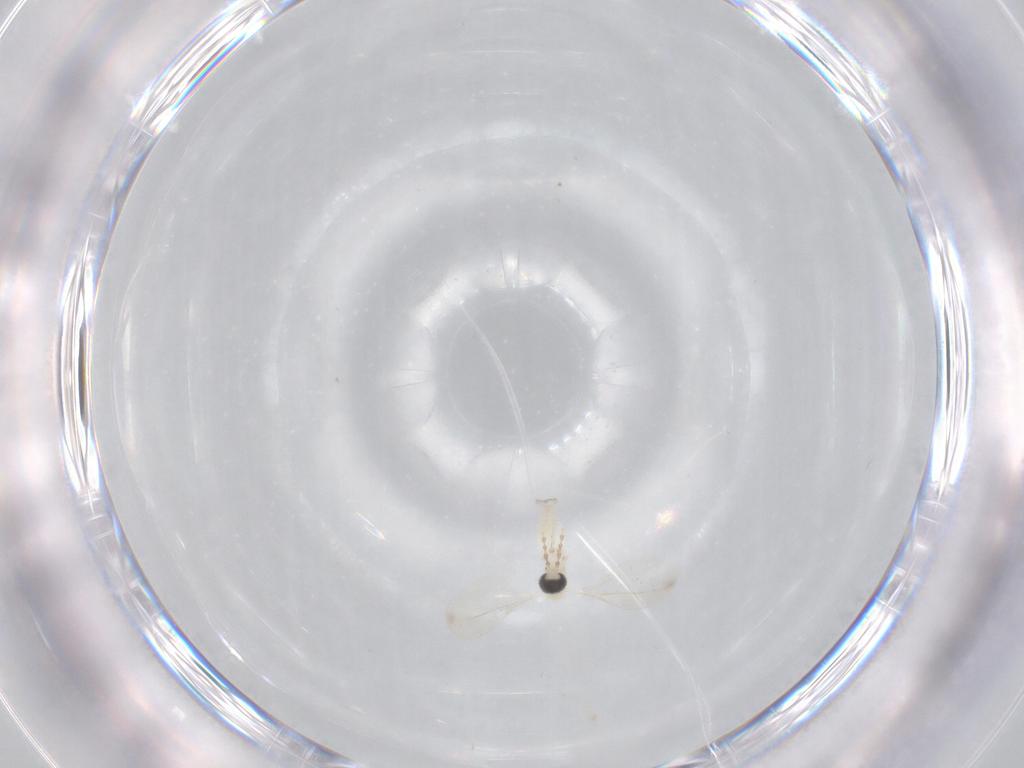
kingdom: Animalia
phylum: Arthropoda
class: Insecta
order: Diptera
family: Cecidomyiidae
